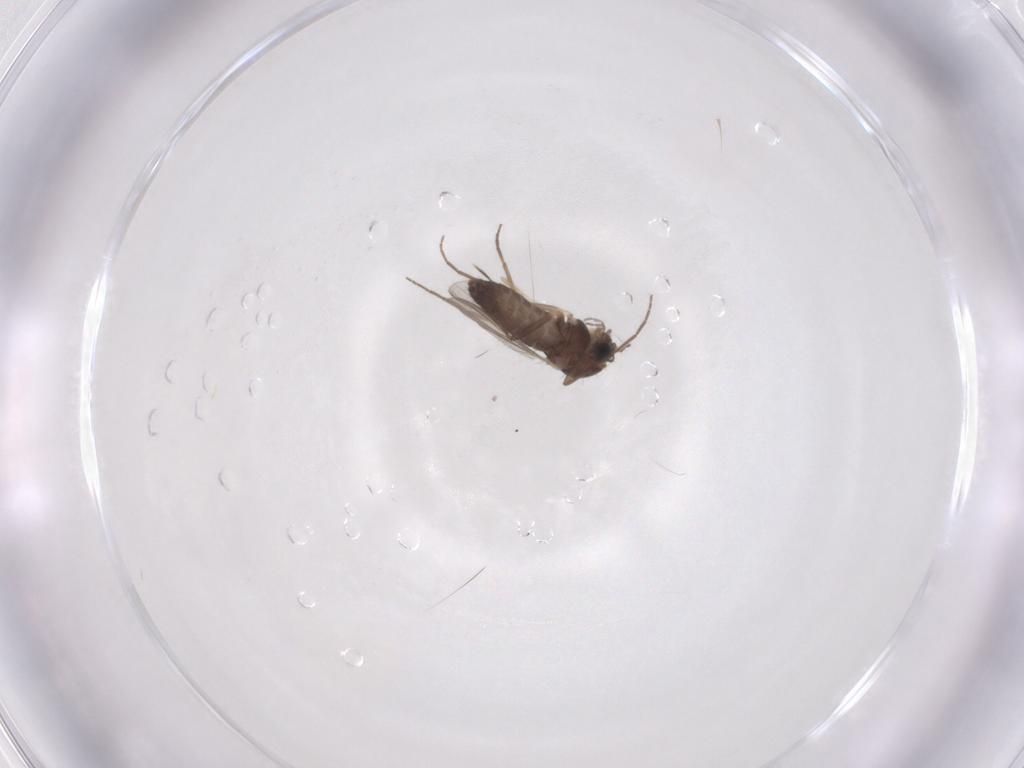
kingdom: Animalia
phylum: Arthropoda
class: Insecta
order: Diptera
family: Chironomidae
